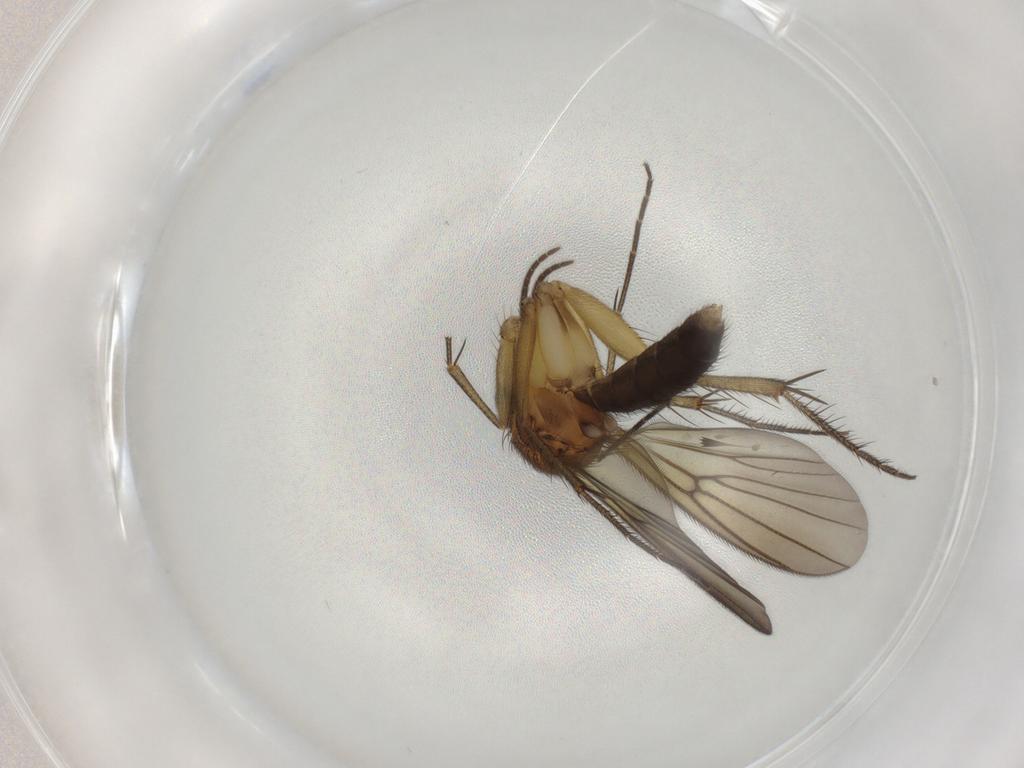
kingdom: Animalia
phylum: Arthropoda
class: Insecta
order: Diptera
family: Mycetophilidae
